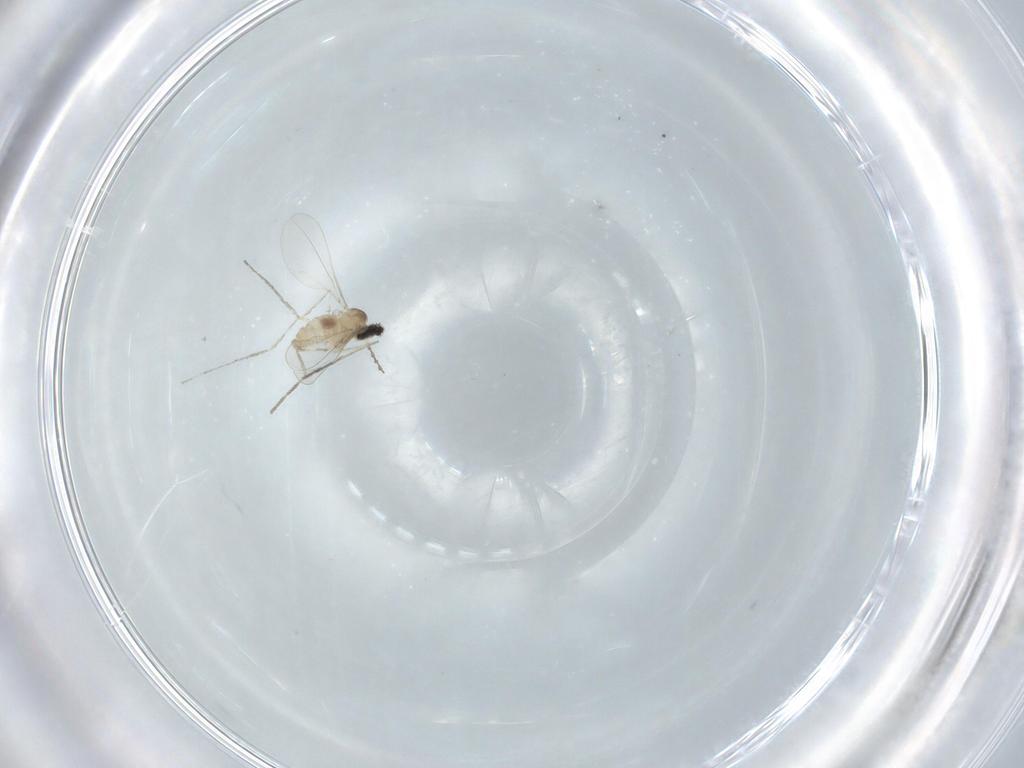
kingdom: Animalia
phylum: Arthropoda
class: Insecta
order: Diptera
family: Cecidomyiidae
